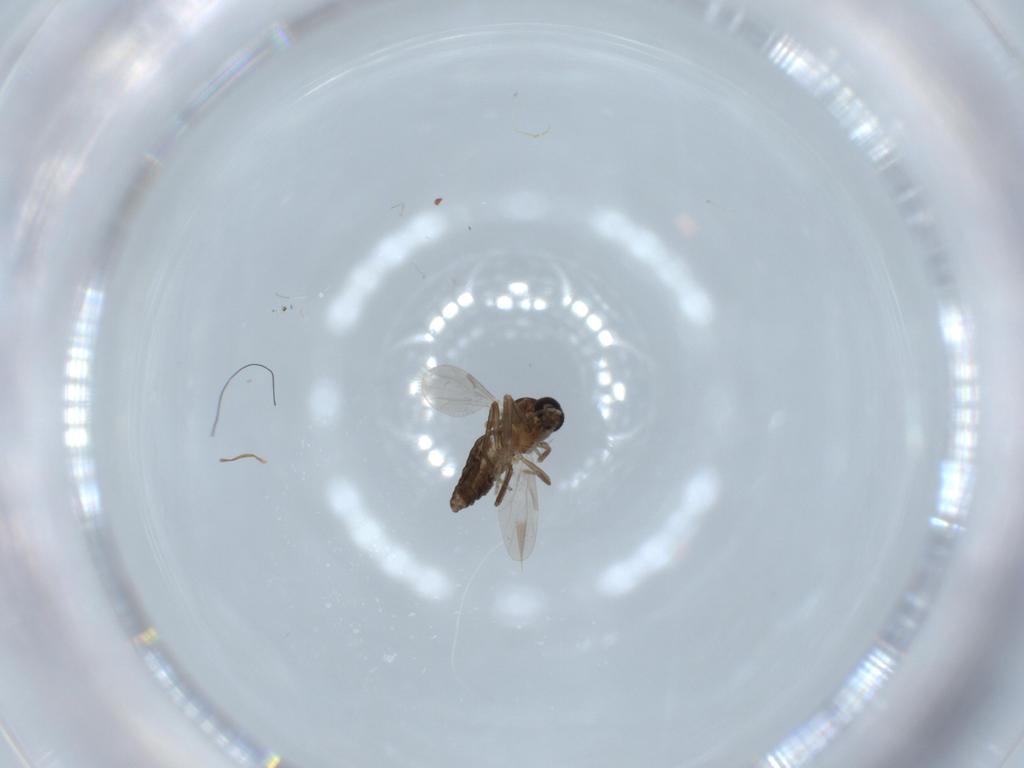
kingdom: Animalia
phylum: Arthropoda
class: Insecta
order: Diptera
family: Ceratopogonidae
